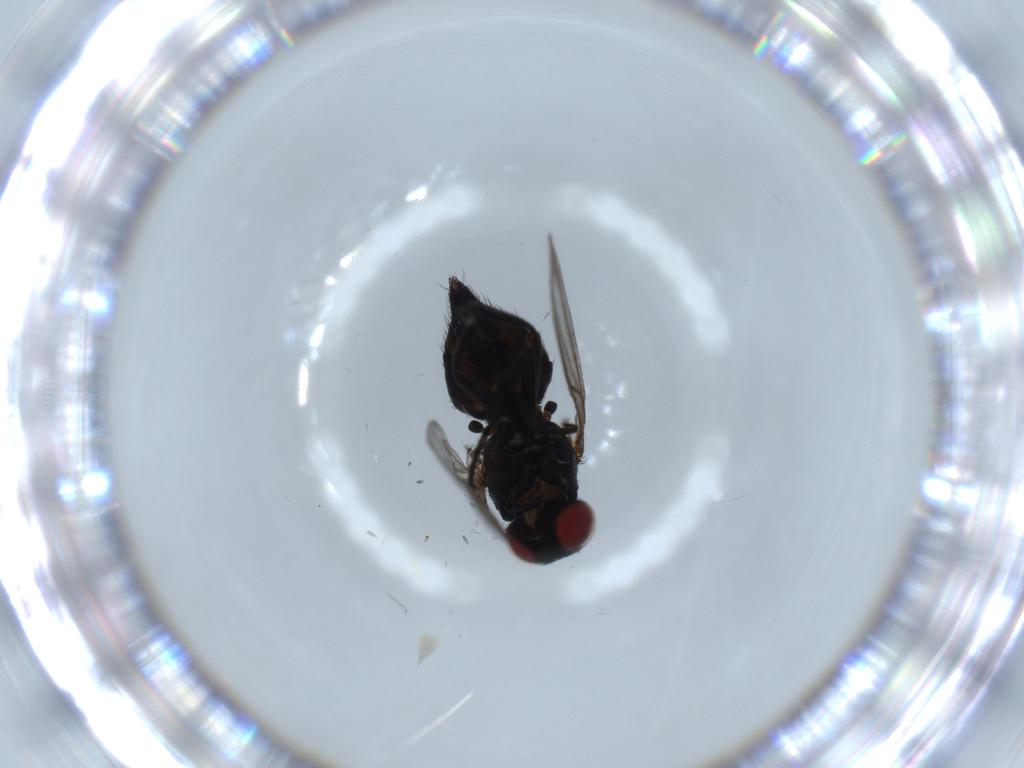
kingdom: Animalia
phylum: Arthropoda
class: Insecta
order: Diptera
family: Agromyzidae
